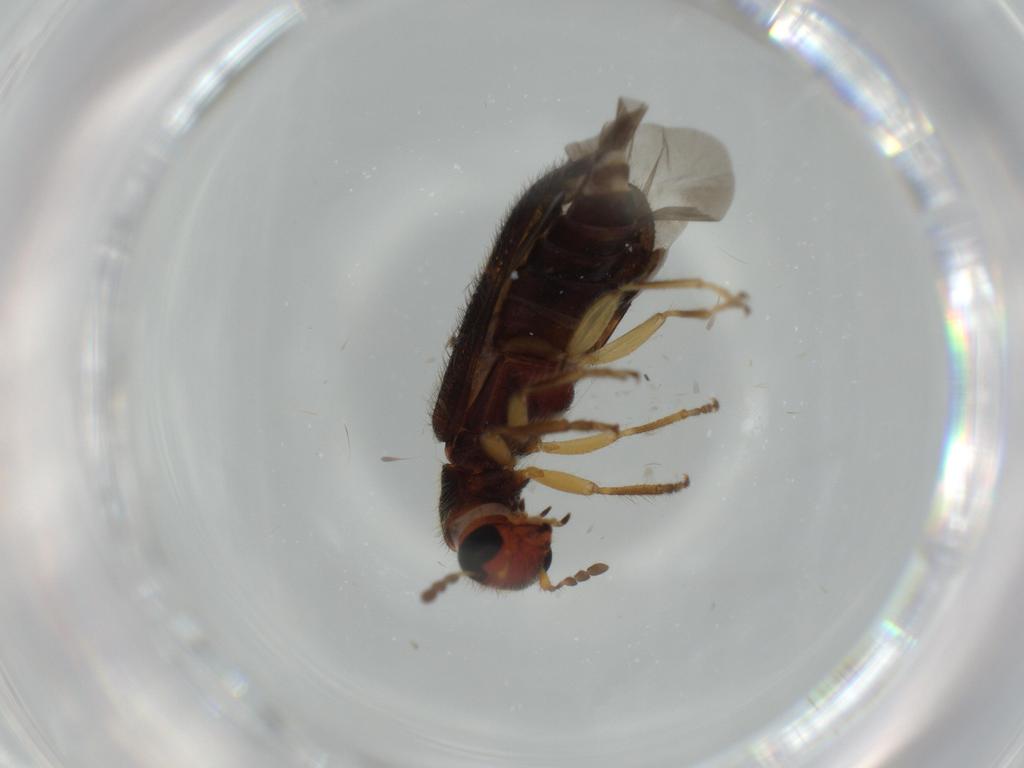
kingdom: Animalia
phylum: Arthropoda
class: Insecta
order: Coleoptera
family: Cleridae
